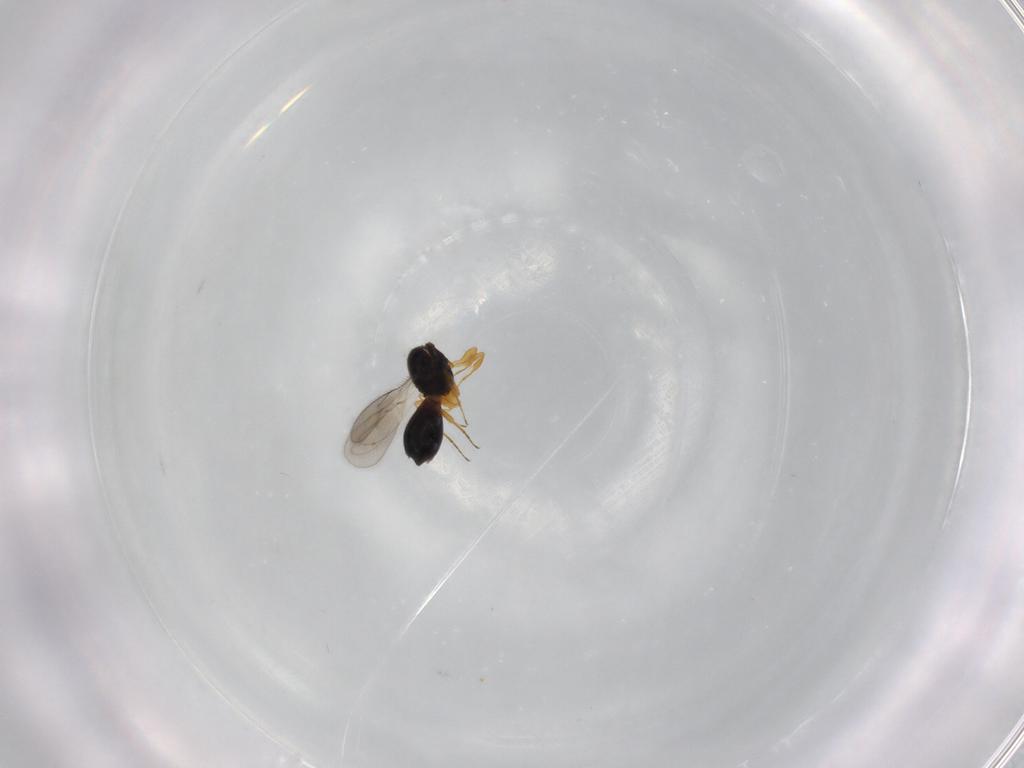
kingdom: Animalia
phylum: Arthropoda
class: Insecta
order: Hymenoptera
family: Scelionidae
